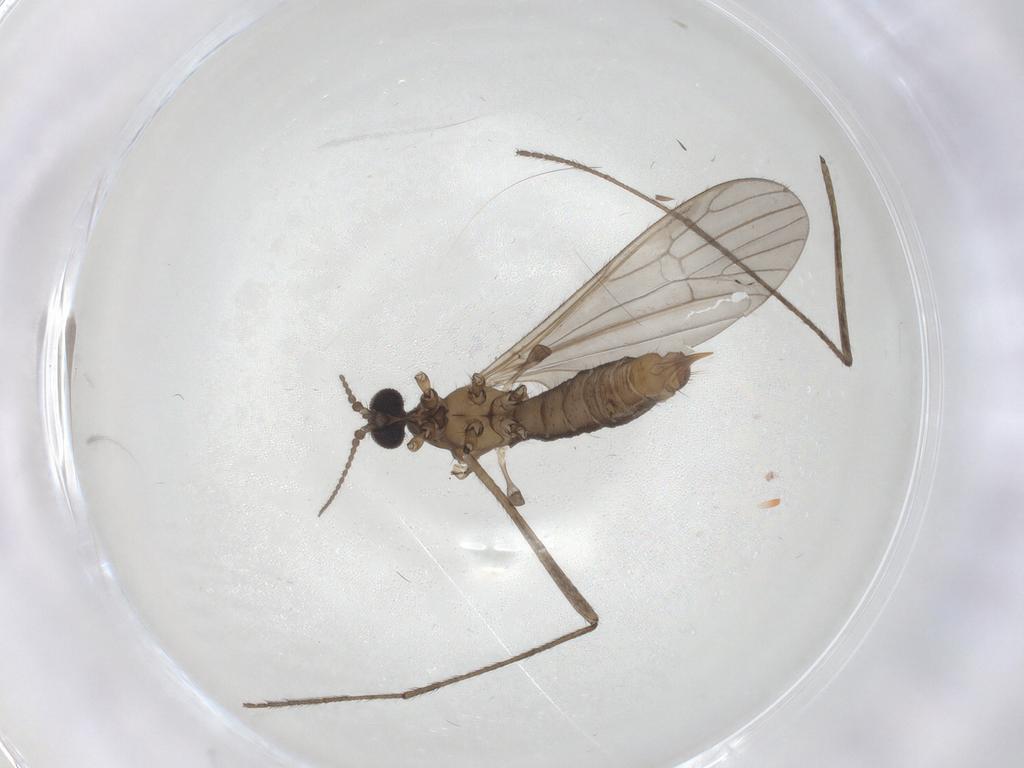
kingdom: Animalia
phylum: Arthropoda
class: Insecta
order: Diptera
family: Limoniidae
